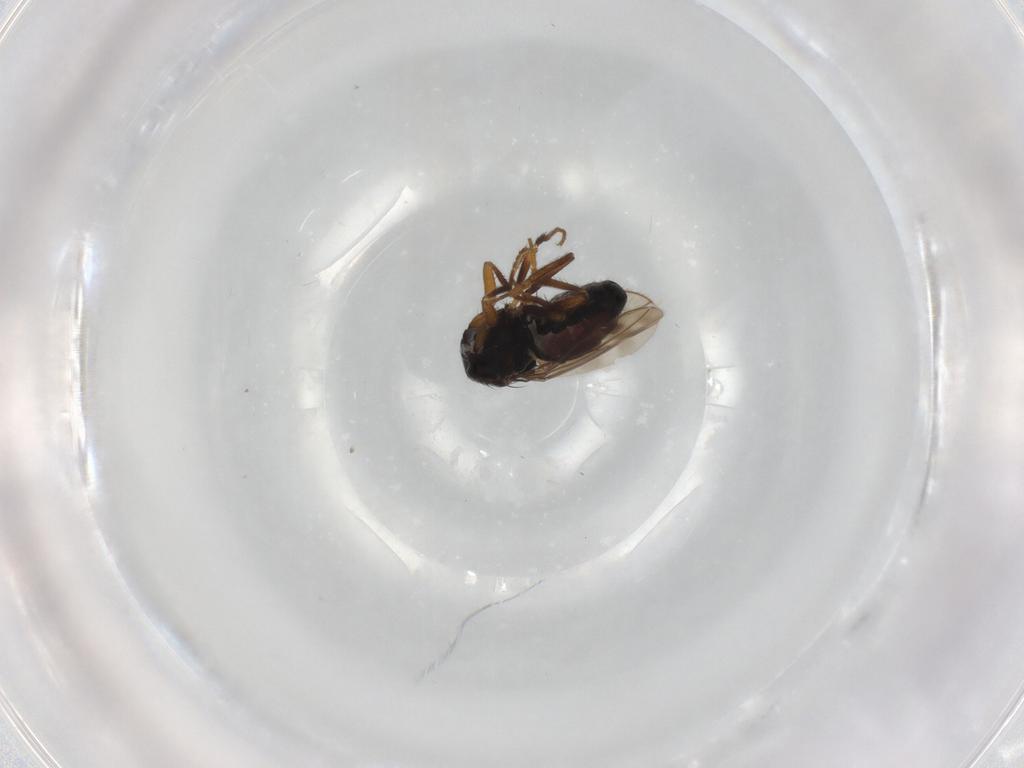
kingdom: Animalia
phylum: Arthropoda
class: Insecta
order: Diptera
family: Sphaeroceridae
